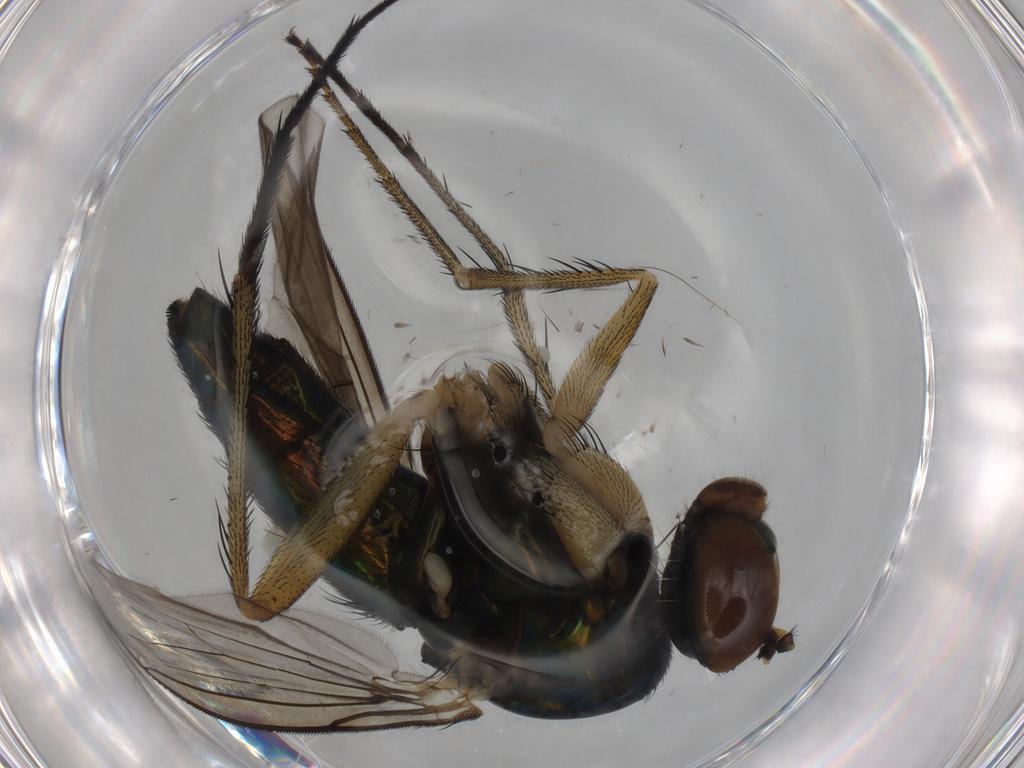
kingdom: Animalia
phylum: Arthropoda
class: Insecta
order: Diptera
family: Dolichopodidae
